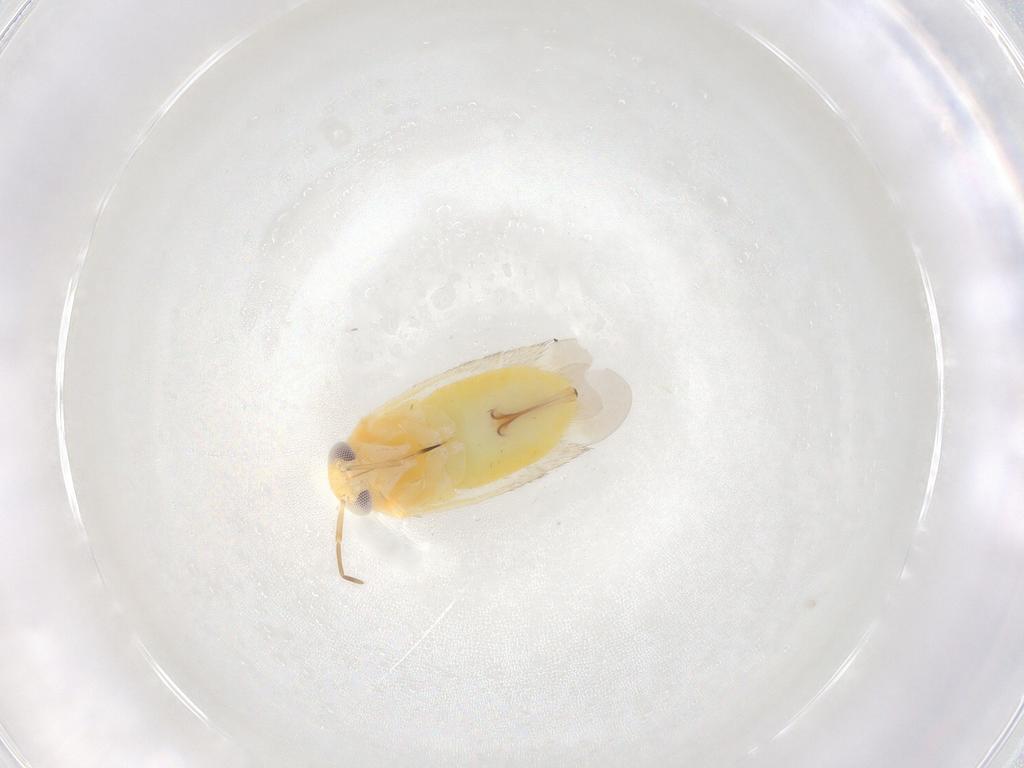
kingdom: Animalia
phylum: Arthropoda
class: Insecta
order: Hemiptera
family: Miridae
